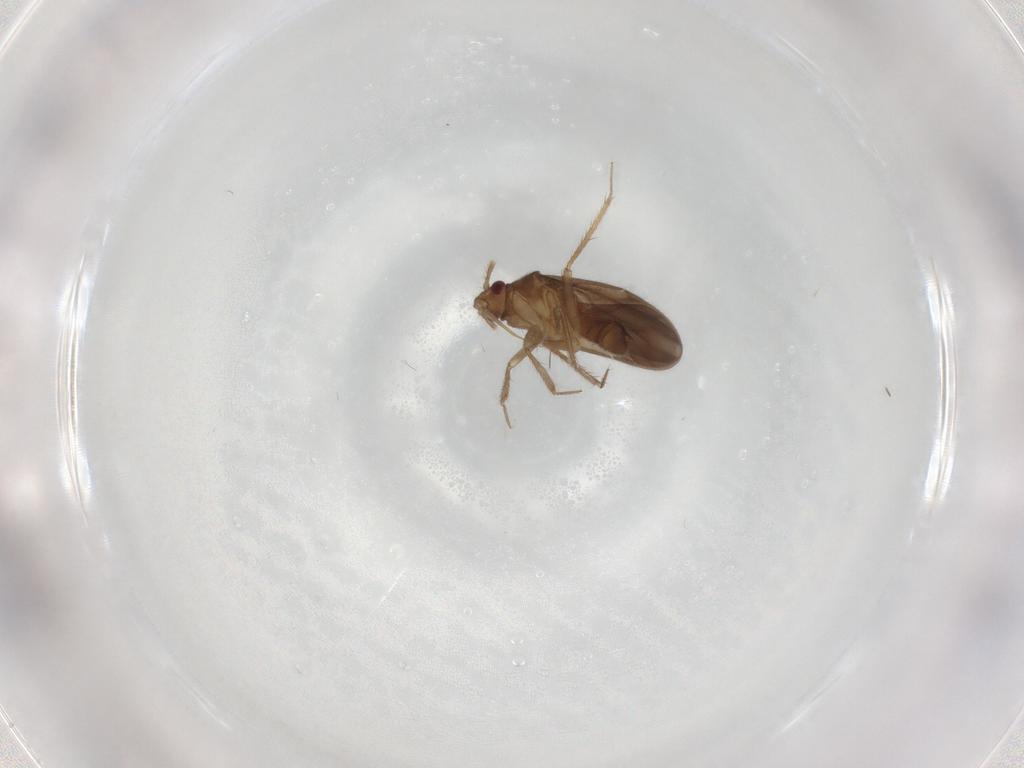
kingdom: Animalia
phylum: Arthropoda
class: Insecta
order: Hemiptera
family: Ceratocombidae
